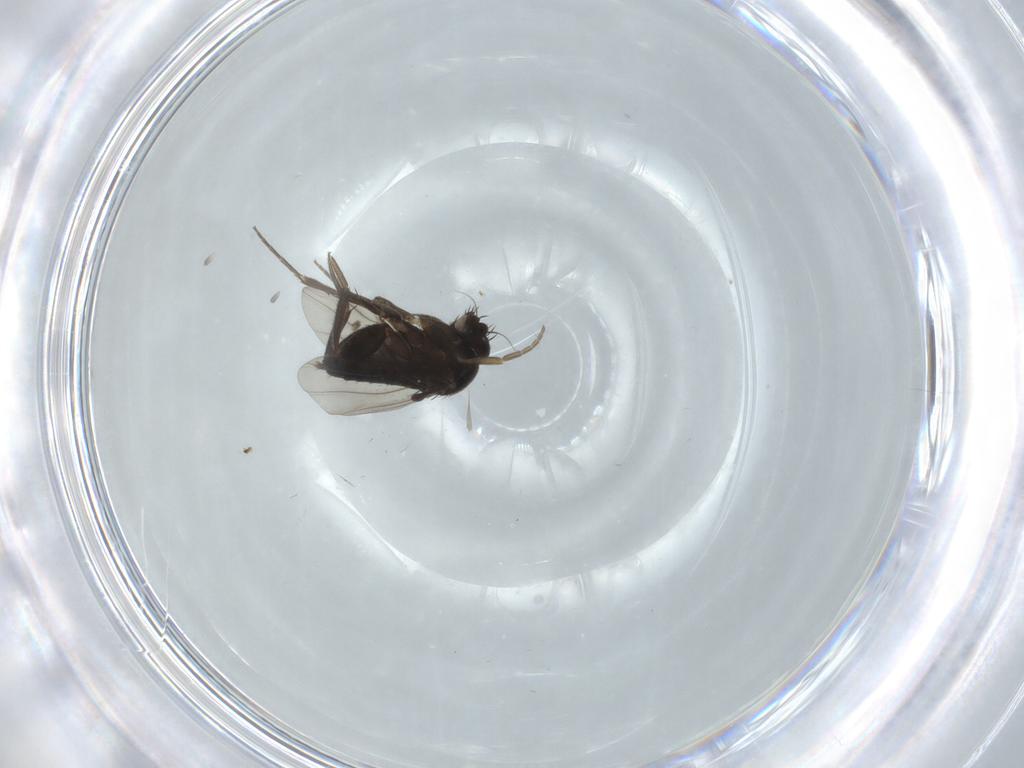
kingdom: Animalia
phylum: Arthropoda
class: Insecta
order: Diptera
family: Cecidomyiidae
